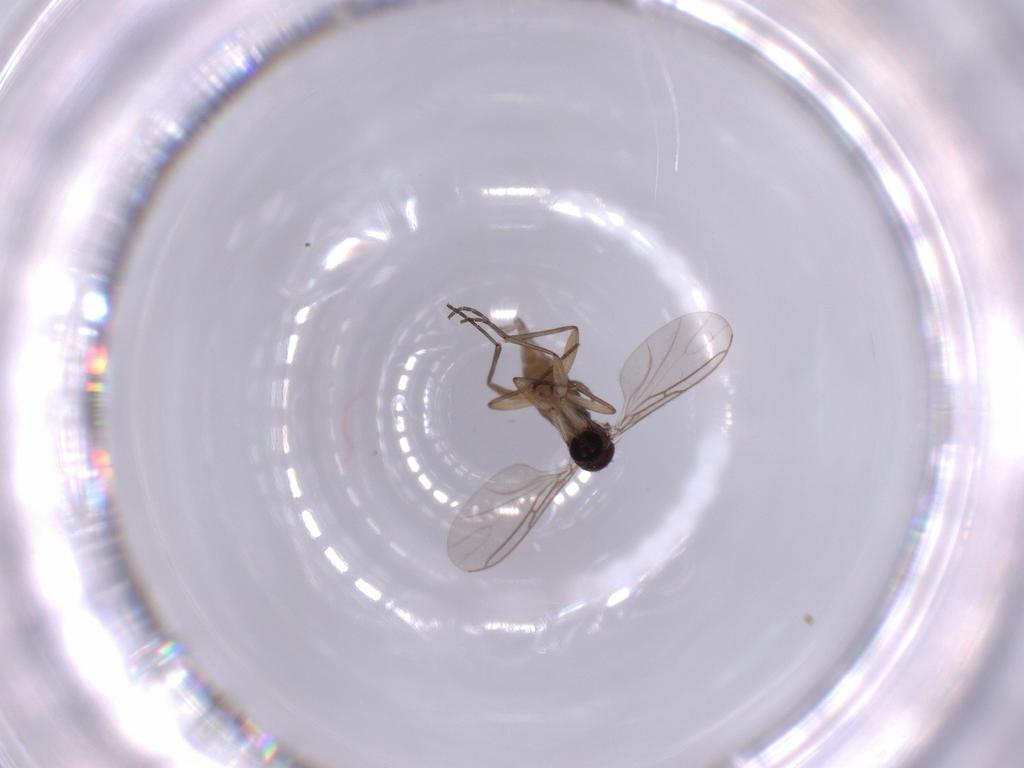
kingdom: Animalia
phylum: Arthropoda
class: Insecta
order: Diptera
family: Sciaridae
